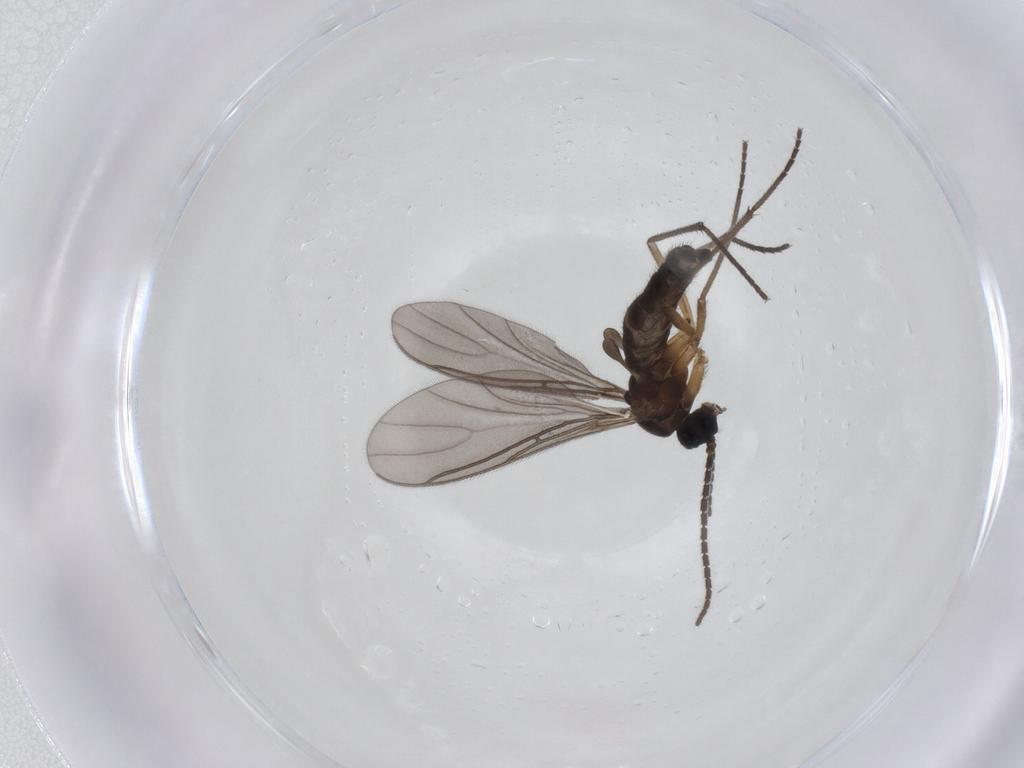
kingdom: Animalia
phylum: Arthropoda
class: Insecta
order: Diptera
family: Sciaridae
